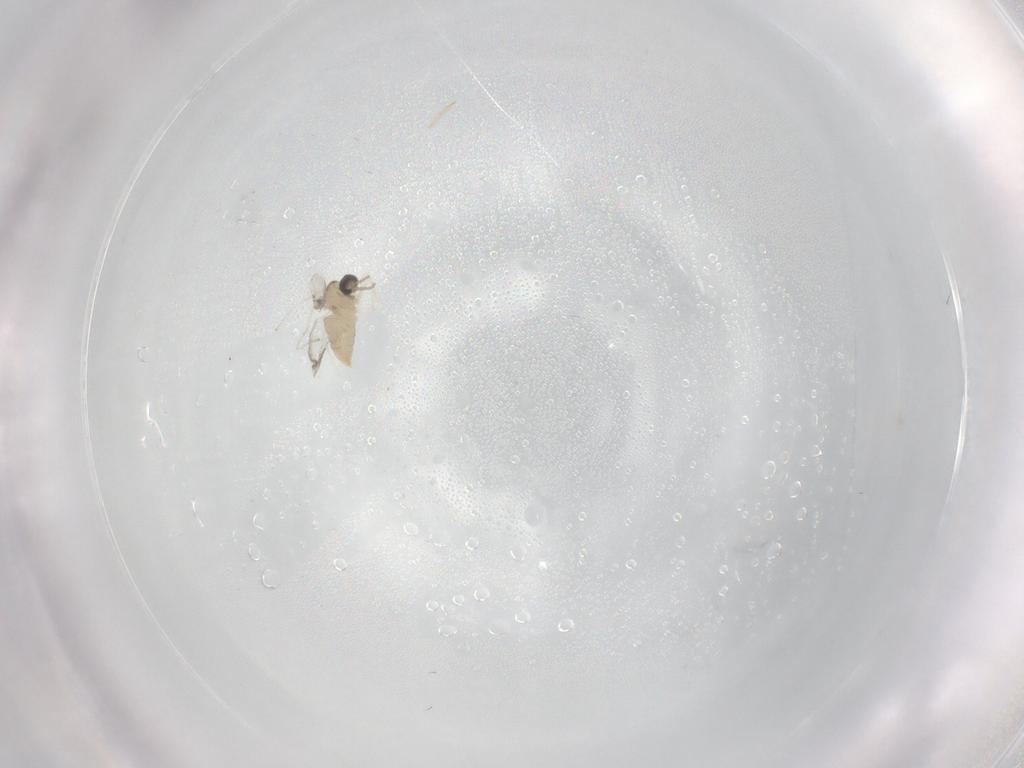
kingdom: Animalia
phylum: Arthropoda
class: Insecta
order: Diptera
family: Cecidomyiidae
